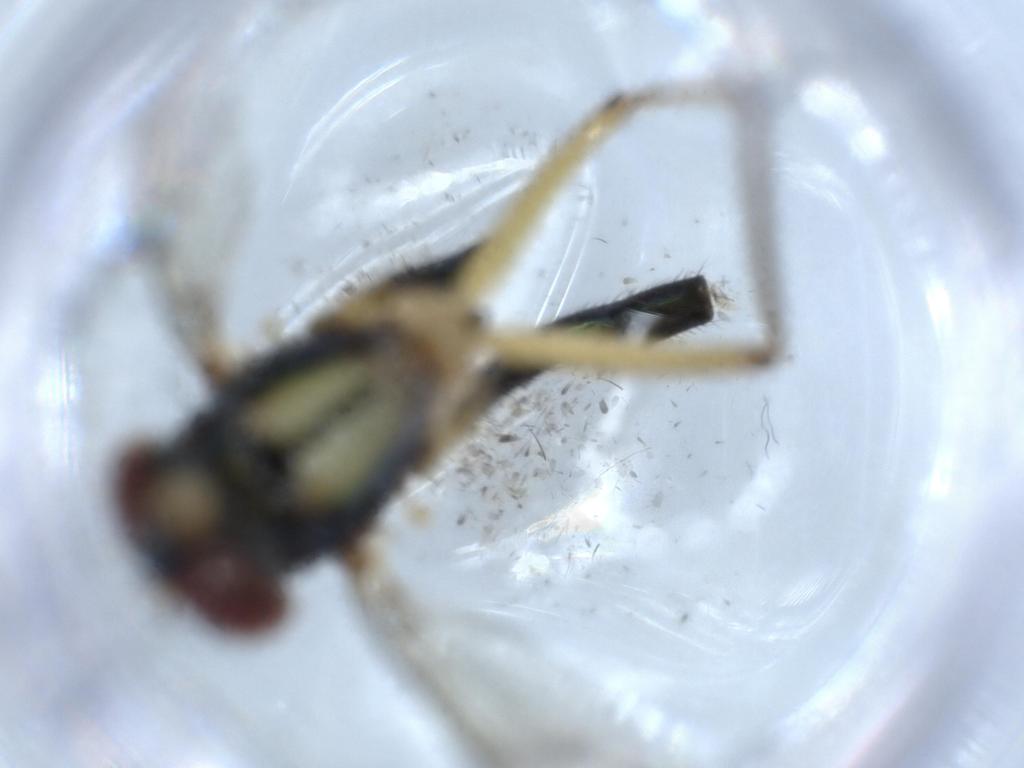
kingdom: Animalia
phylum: Arthropoda
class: Insecta
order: Diptera
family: Dolichopodidae
